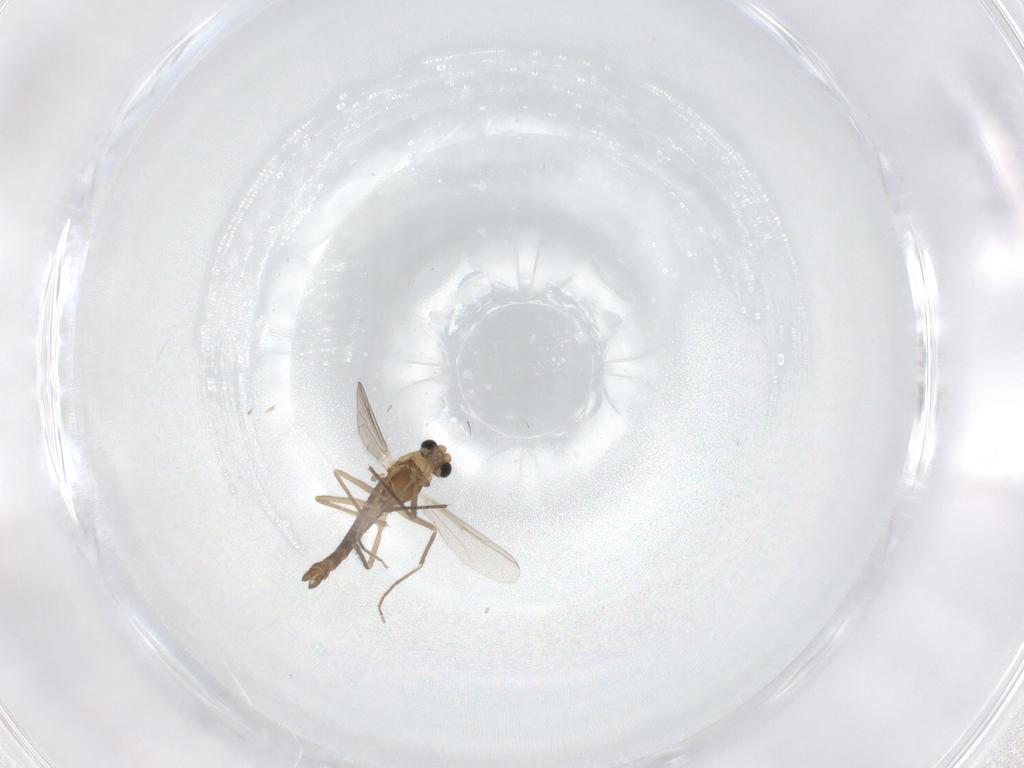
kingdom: Animalia
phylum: Arthropoda
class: Insecta
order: Diptera
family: Chironomidae
